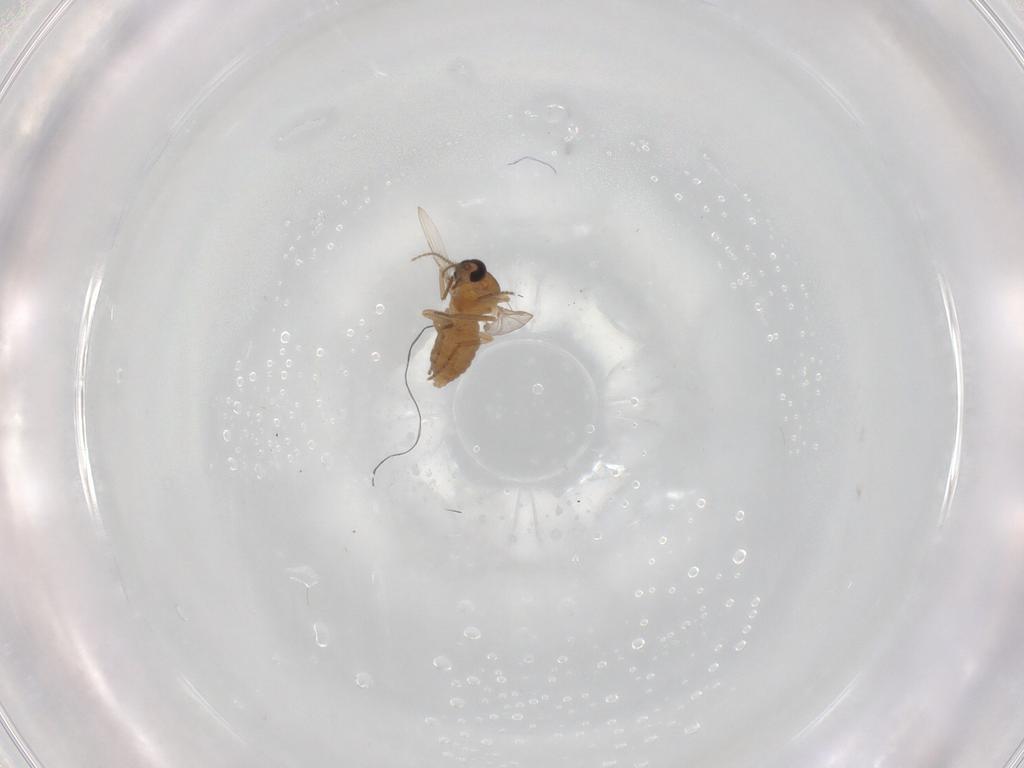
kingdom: Animalia
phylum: Arthropoda
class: Insecta
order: Diptera
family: Ceratopogonidae
